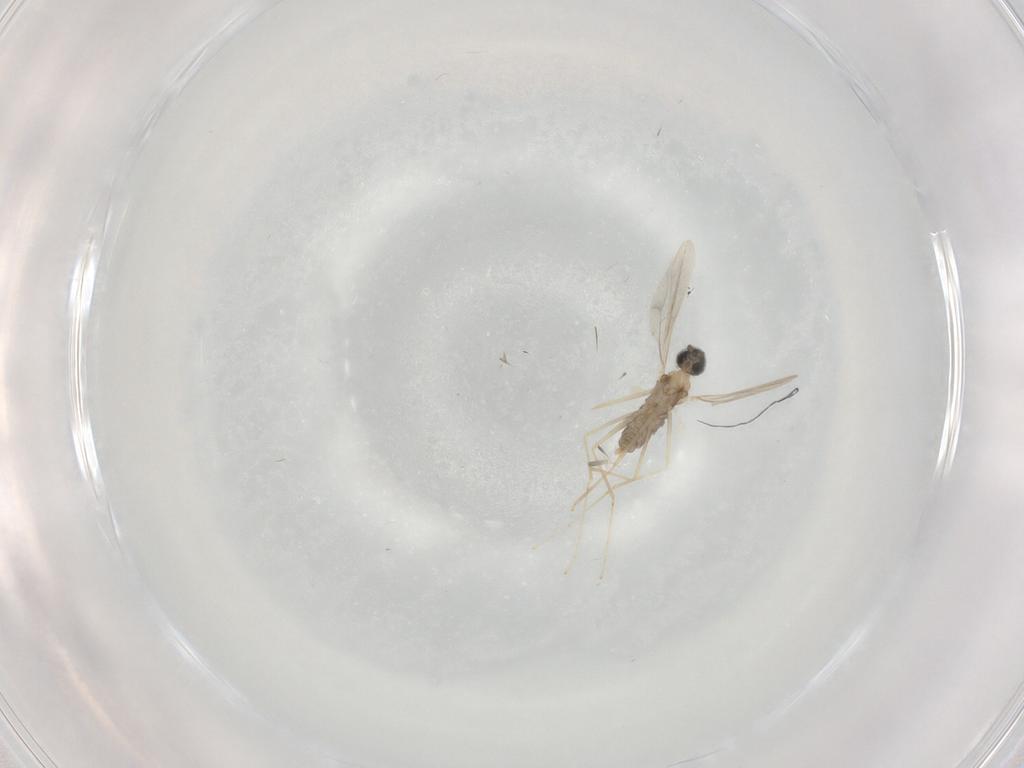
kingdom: Animalia
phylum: Arthropoda
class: Insecta
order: Diptera
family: Cecidomyiidae
